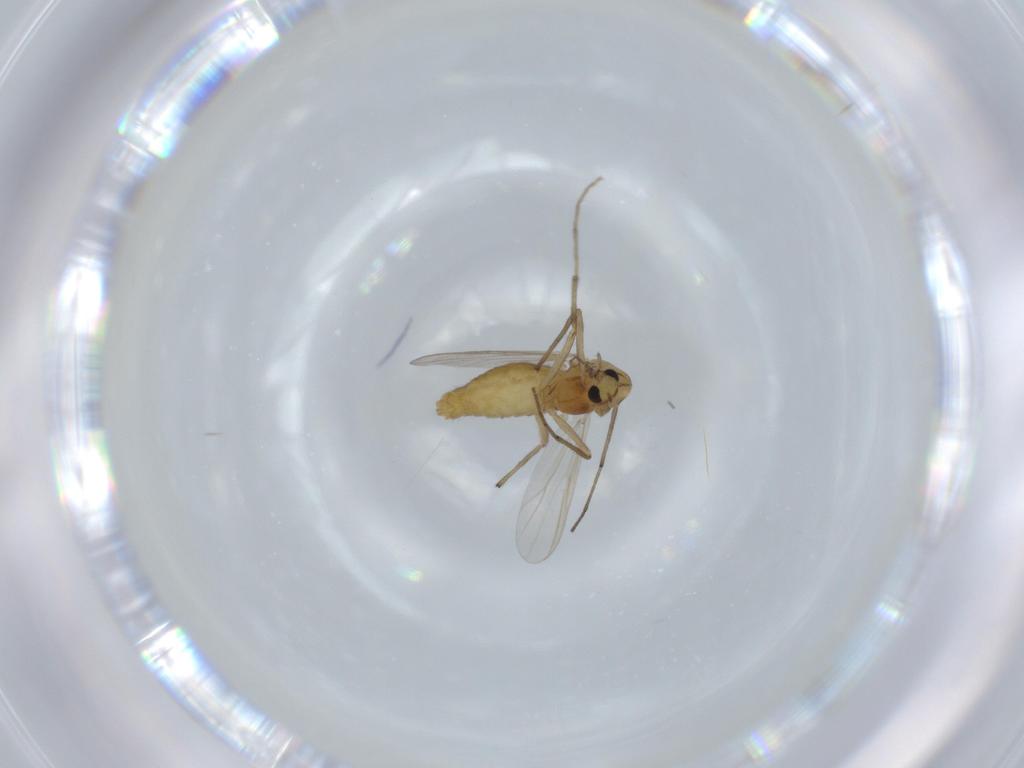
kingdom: Animalia
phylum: Arthropoda
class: Insecta
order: Diptera
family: Chironomidae
